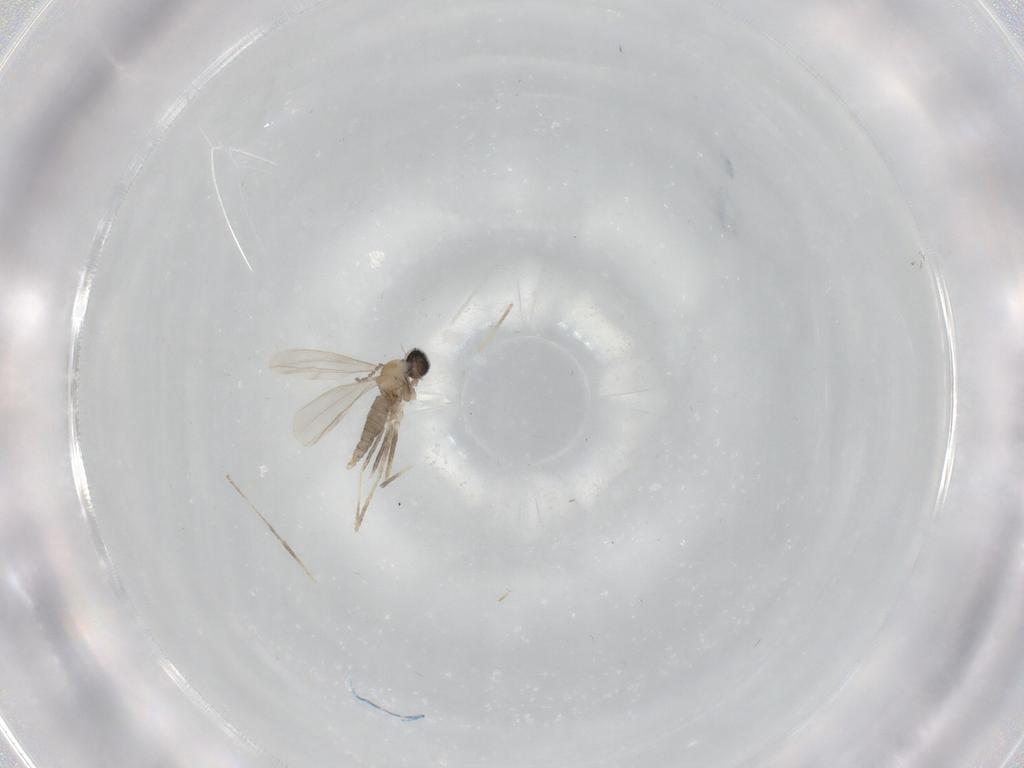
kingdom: Animalia
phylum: Arthropoda
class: Insecta
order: Diptera
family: Cecidomyiidae
